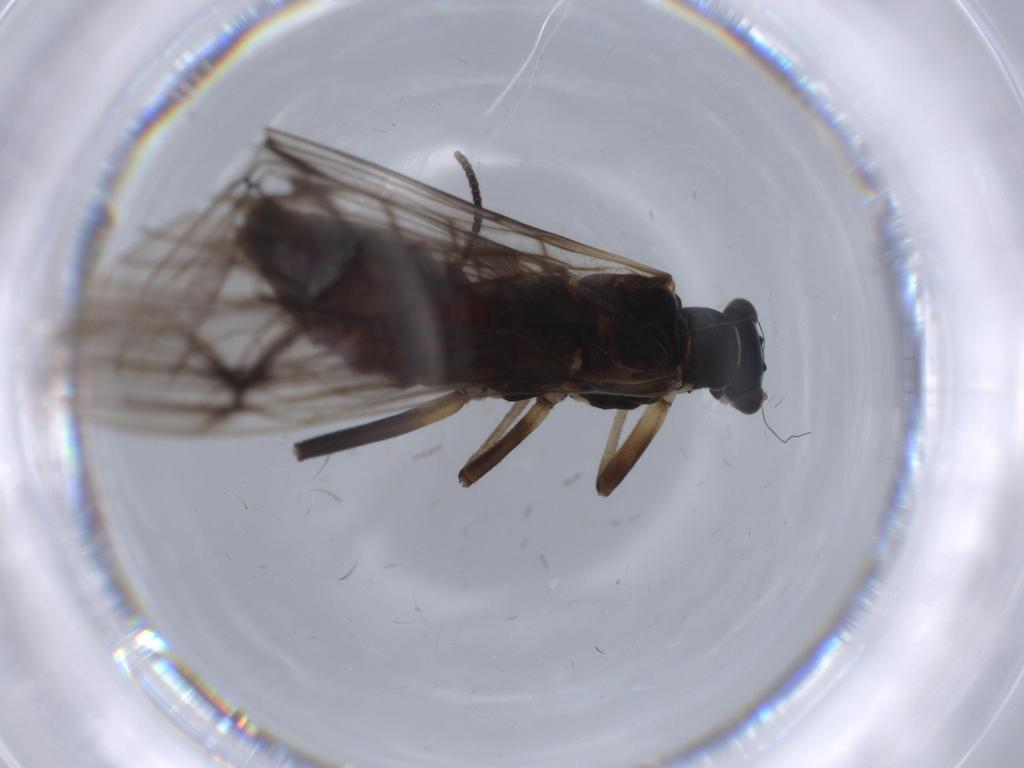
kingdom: Animalia
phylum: Arthropoda
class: Insecta
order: Plecoptera
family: Nemouridae
